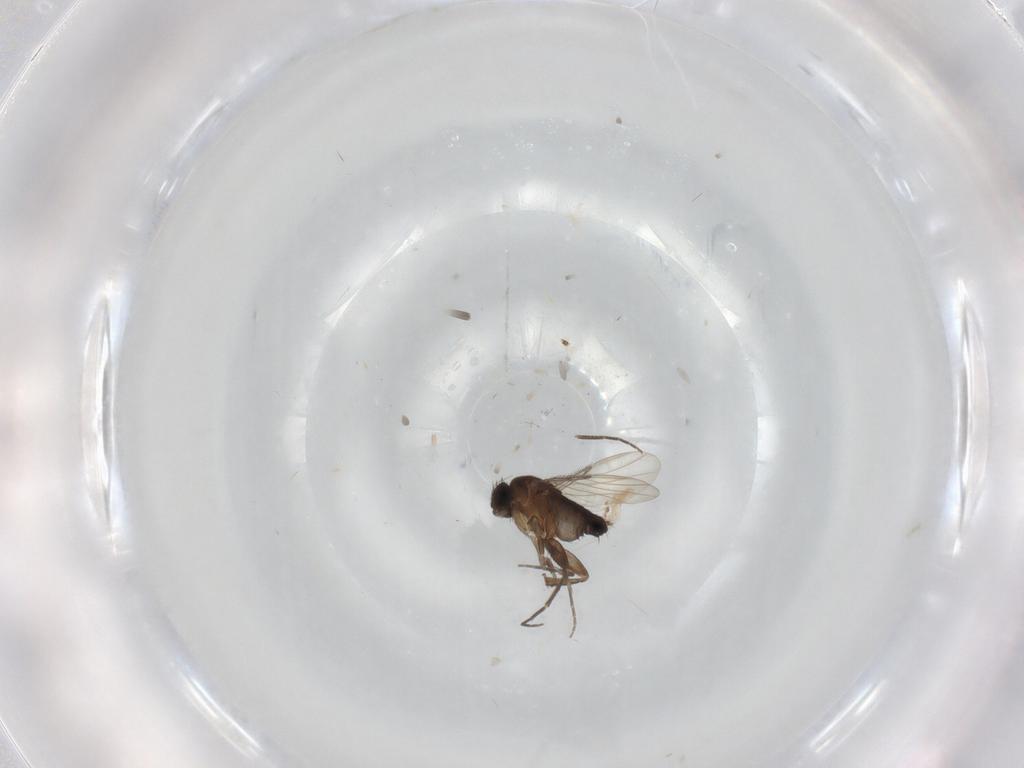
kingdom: Animalia
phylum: Arthropoda
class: Insecta
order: Diptera
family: Phoridae
